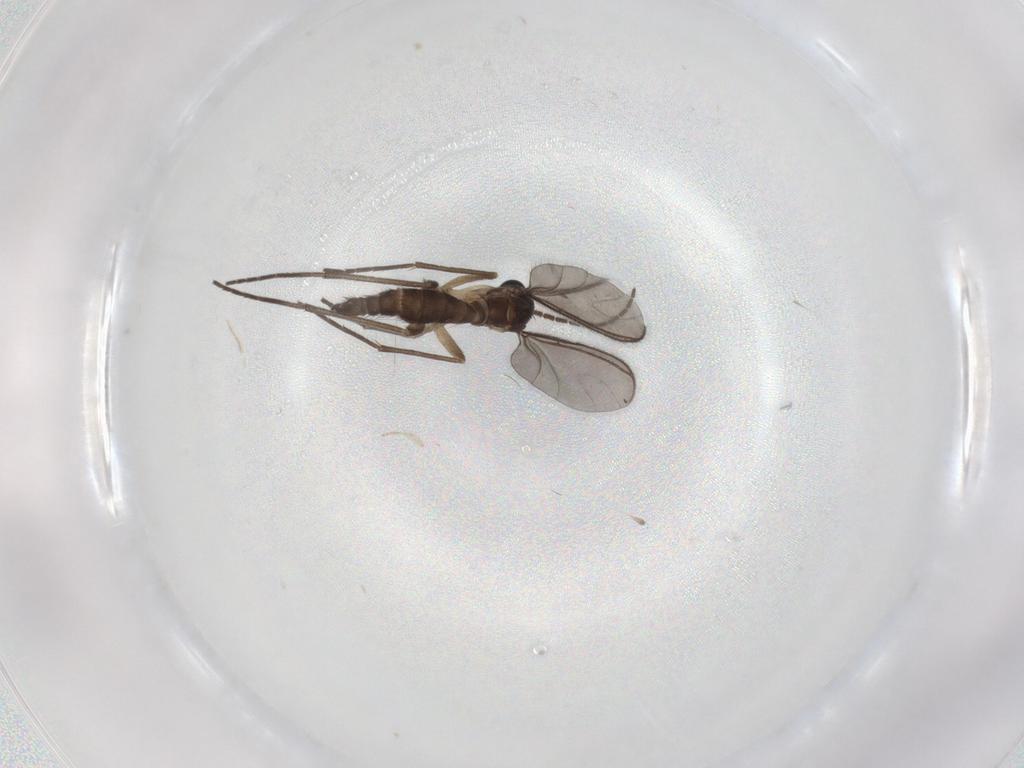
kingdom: Animalia
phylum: Arthropoda
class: Insecta
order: Diptera
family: Sciaridae
